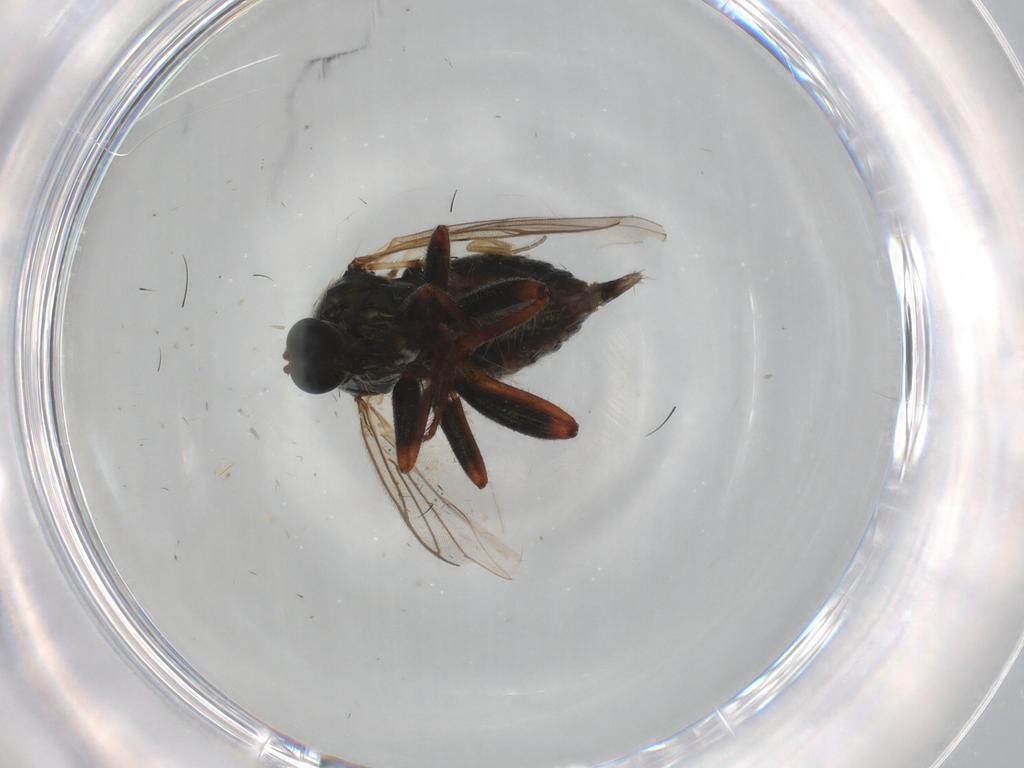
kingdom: Animalia
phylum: Arthropoda
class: Insecta
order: Diptera
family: Hybotidae
